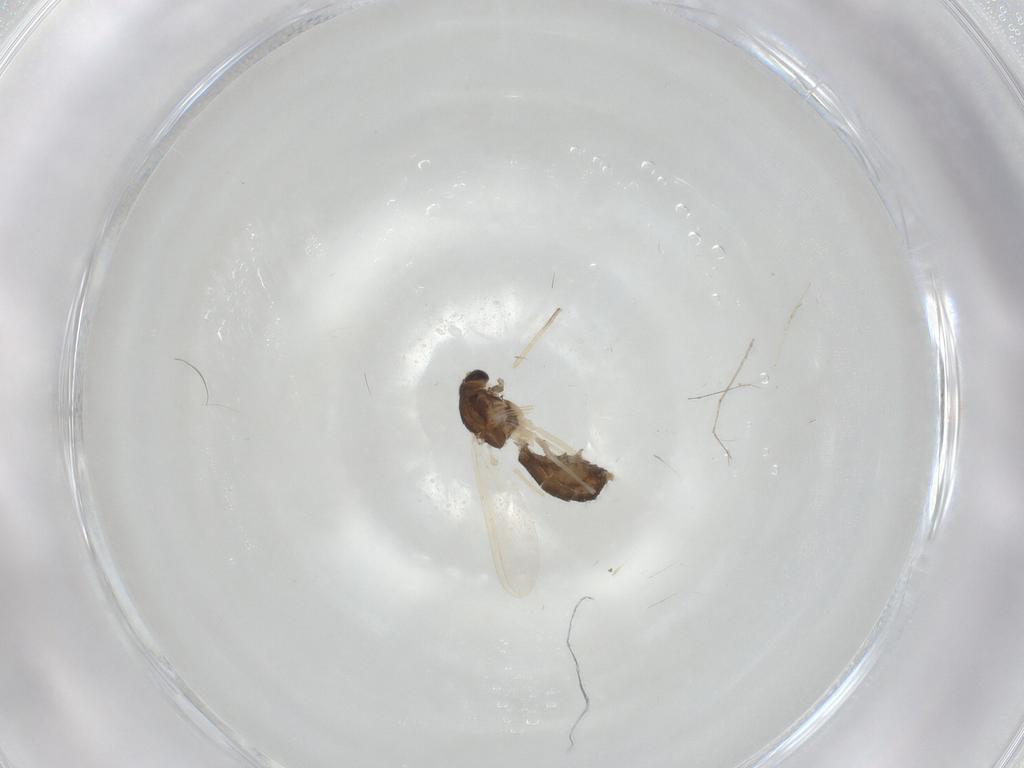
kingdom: Animalia
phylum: Arthropoda
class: Insecta
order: Diptera
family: Chironomidae
